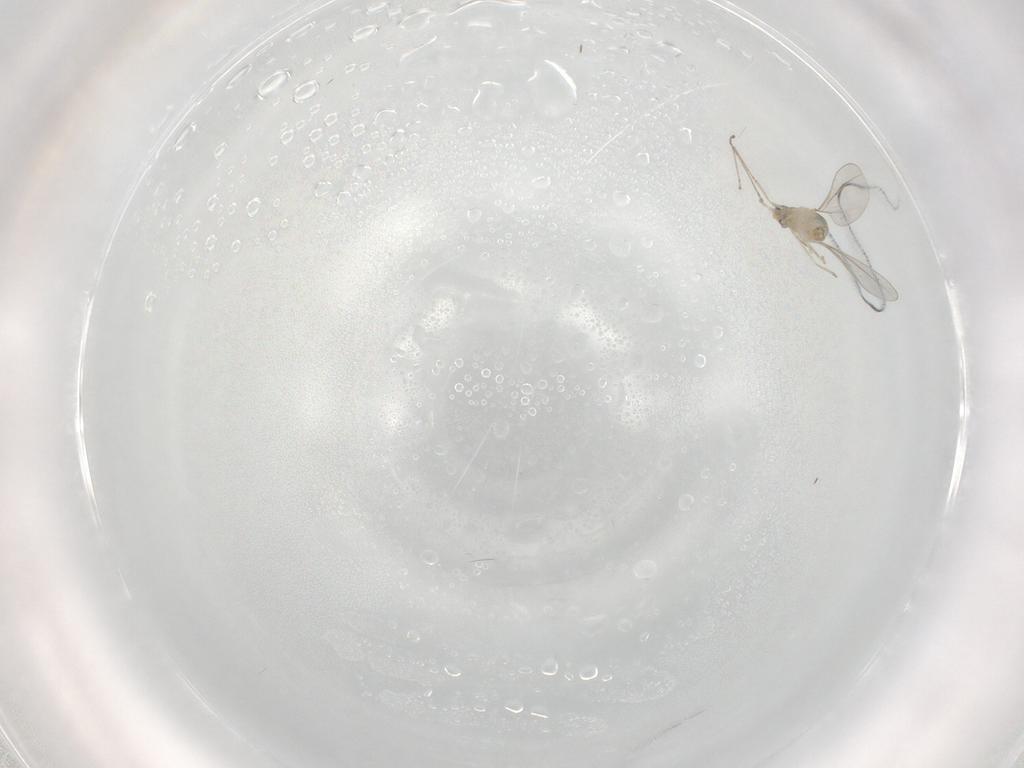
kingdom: Animalia
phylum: Arthropoda
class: Insecta
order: Diptera
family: Cecidomyiidae
